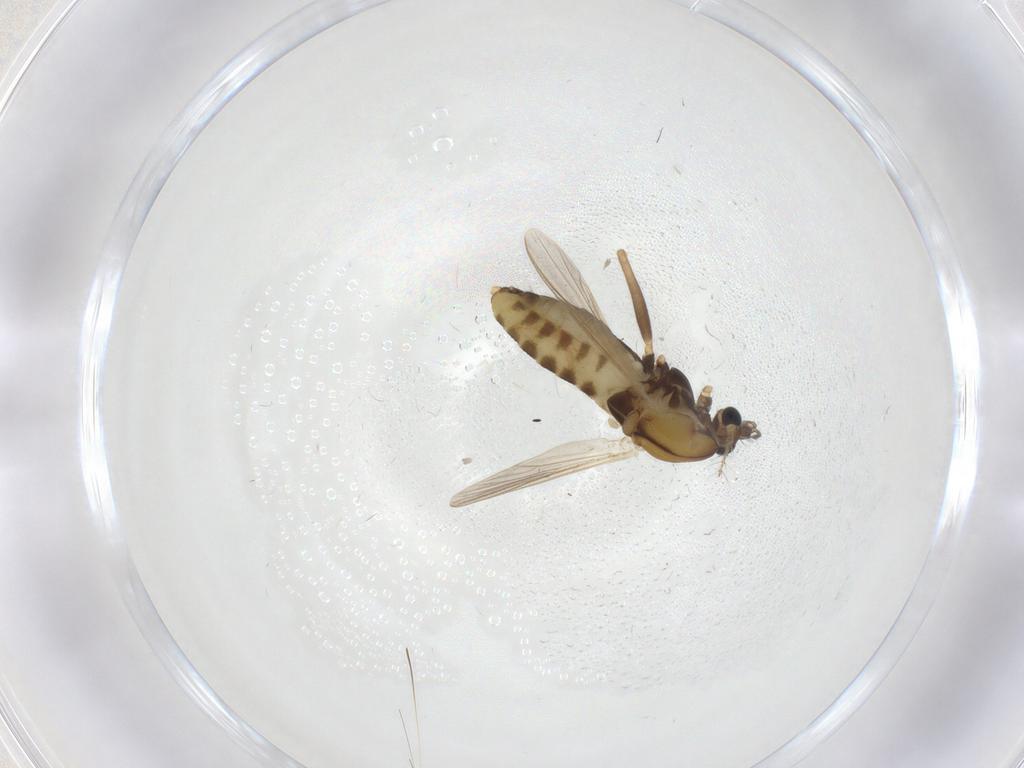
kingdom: Animalia
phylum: Arthropoda
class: Insecta
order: Diptera
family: Chironomidae
